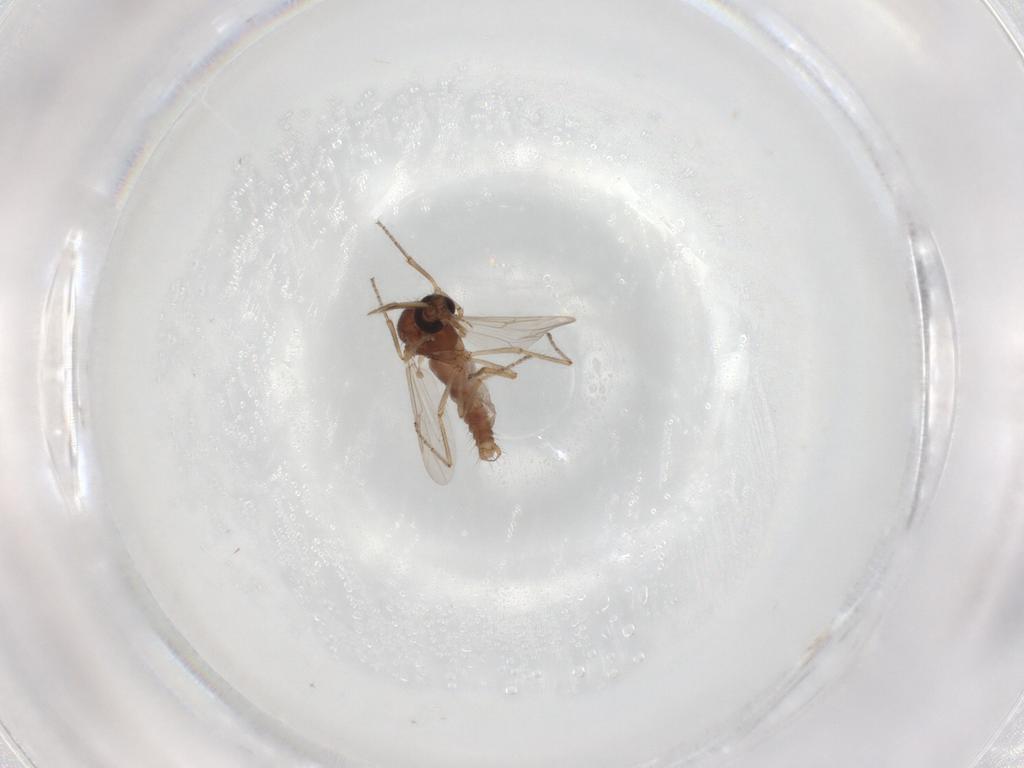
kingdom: Animalia
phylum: Arthropoda
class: Insecta
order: Diptera
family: Ceratopogonidae
